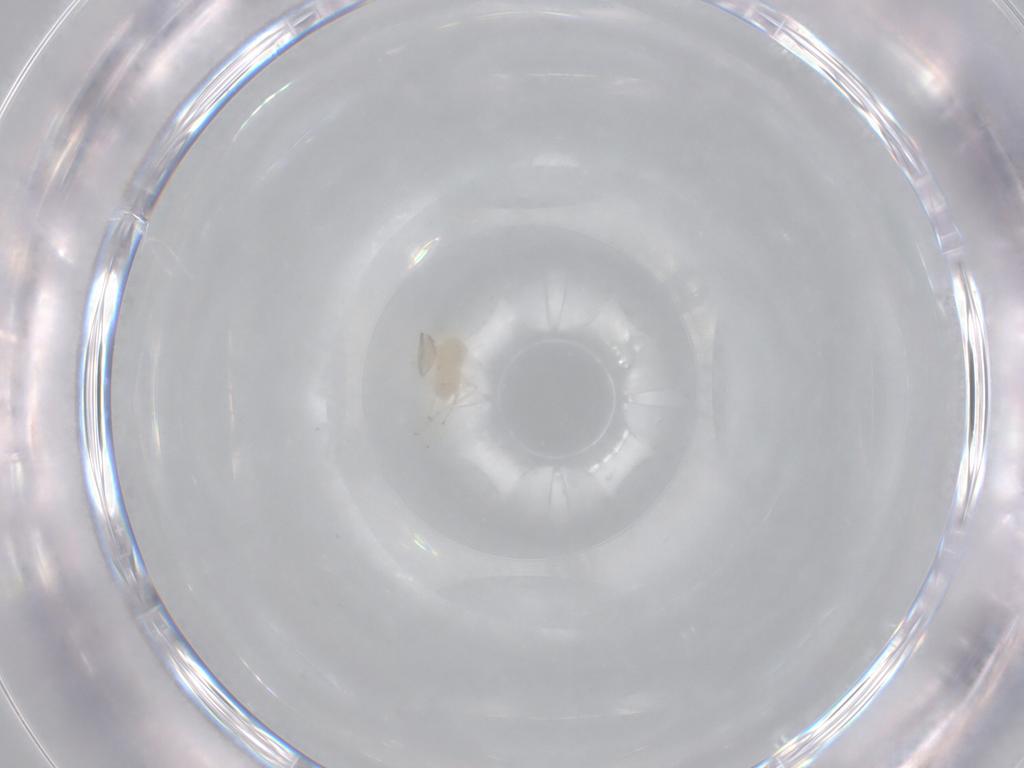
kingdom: Animalia
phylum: Arthropoda
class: Insecta
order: Hymenoptera
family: Aphelinidae
